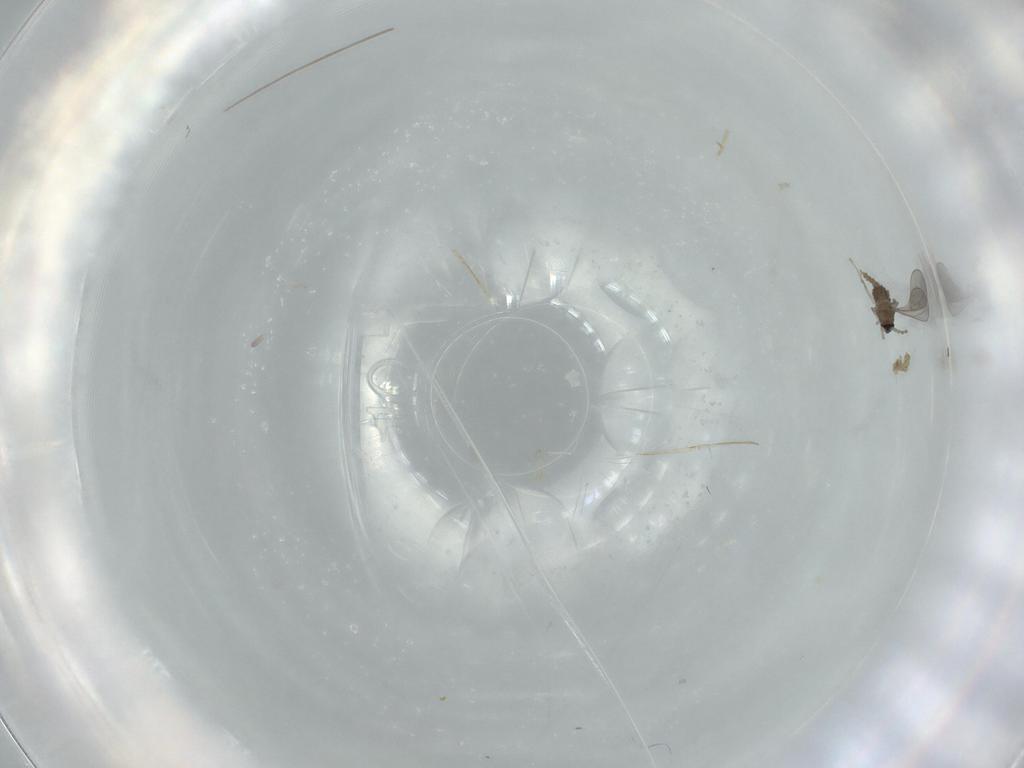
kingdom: Animalia
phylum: Arthropoda
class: Insecta
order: Diptera
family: Cecidomyiidae
